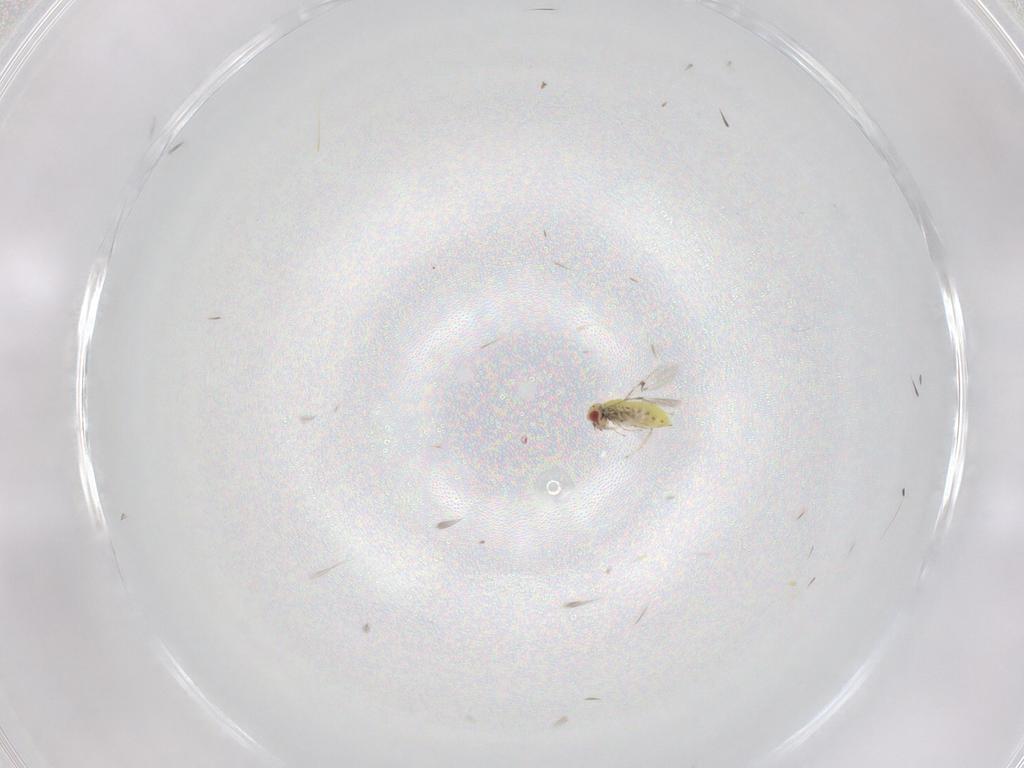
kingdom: Animalia
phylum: Arthropoda
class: Insecta
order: Hymenoptera
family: Trichogrammatidae
